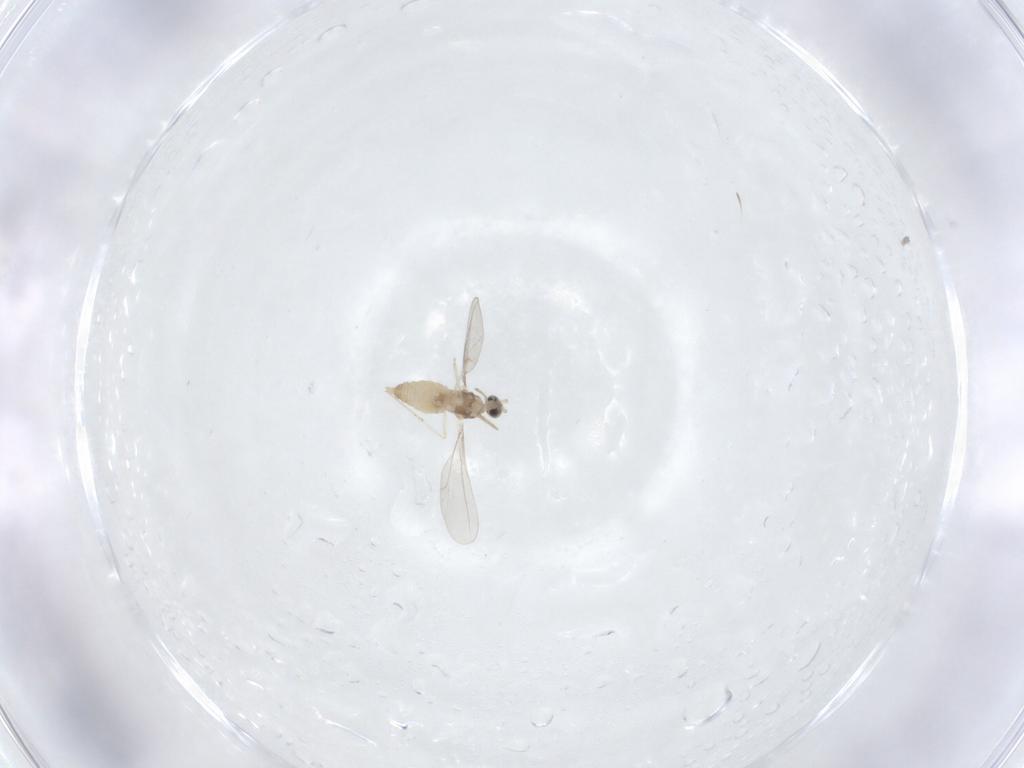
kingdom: Animalia
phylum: Arthropoda
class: Insecta
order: Diptera
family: Cecidomyiidae
